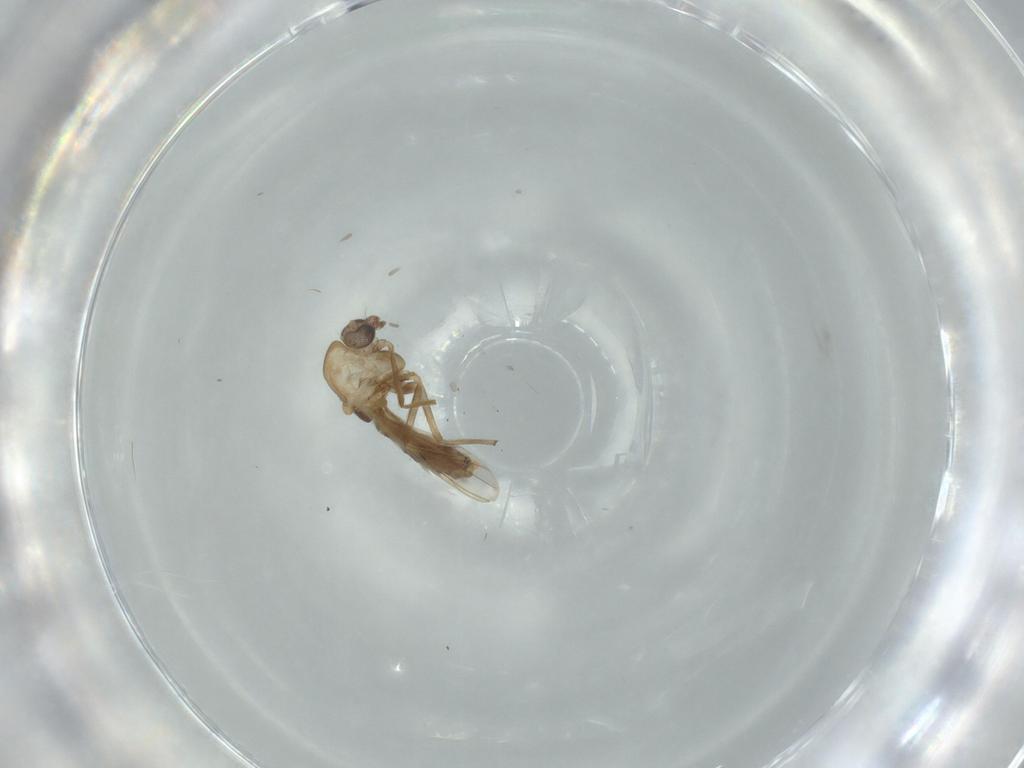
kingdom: Animalia
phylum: Arthropoda
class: Insecta
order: Diptera
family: Chironomidae
